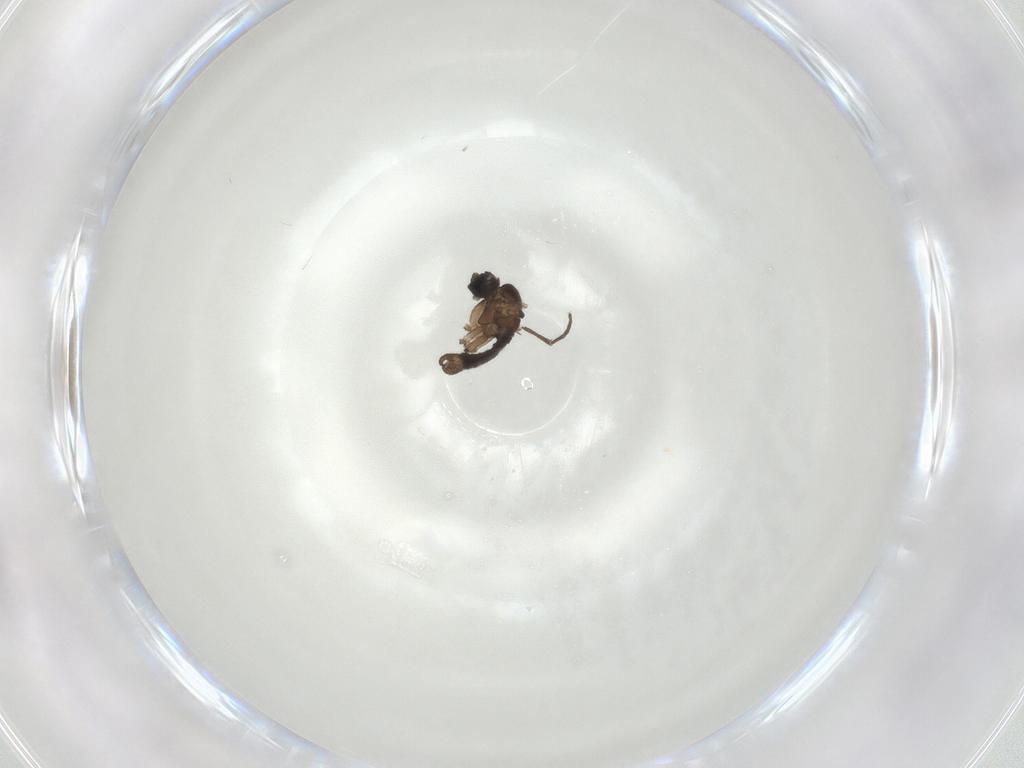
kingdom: Animalia
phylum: Arthropoda
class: Insecta
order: Diptera
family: Sciaridae
